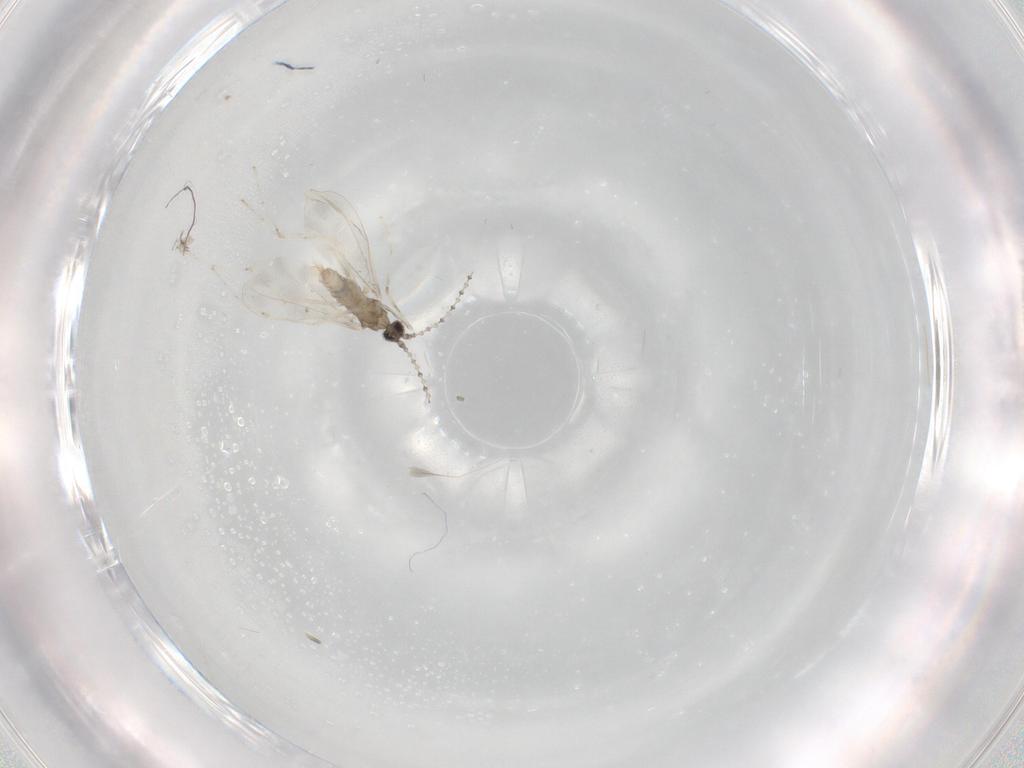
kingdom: Animalia
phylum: Arthropoda
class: Insecta
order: Diptera
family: Cecidomyiidae
